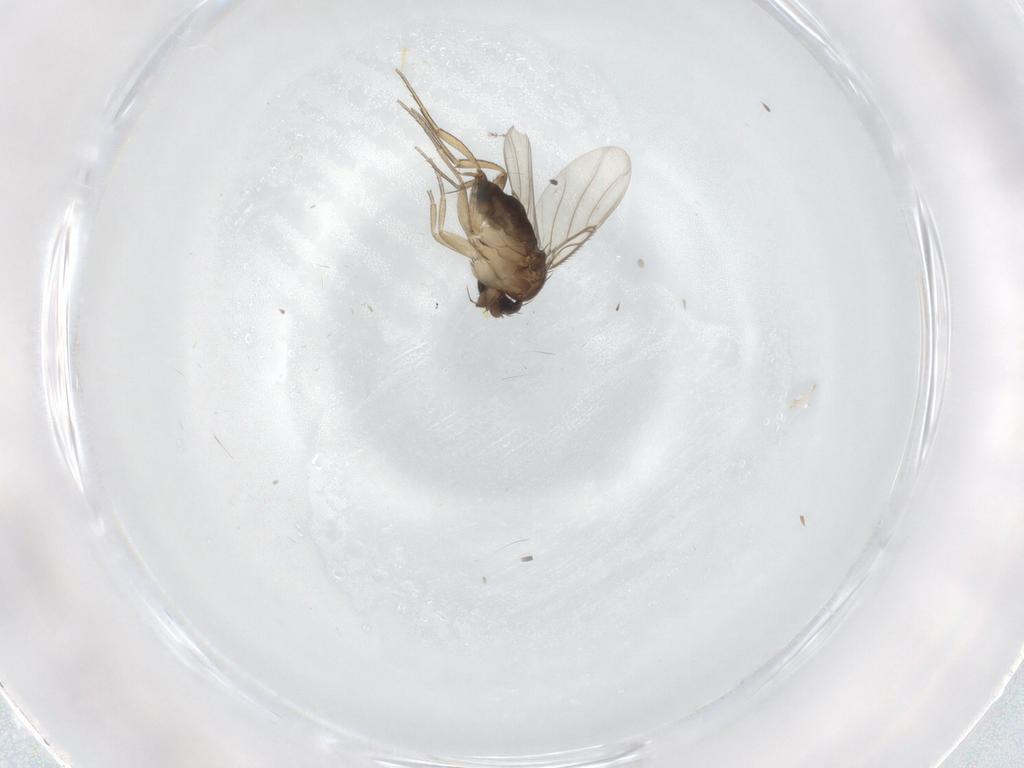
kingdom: Animalia
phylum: Arthropoda
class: Insecta
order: Diptera
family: Phoridae
